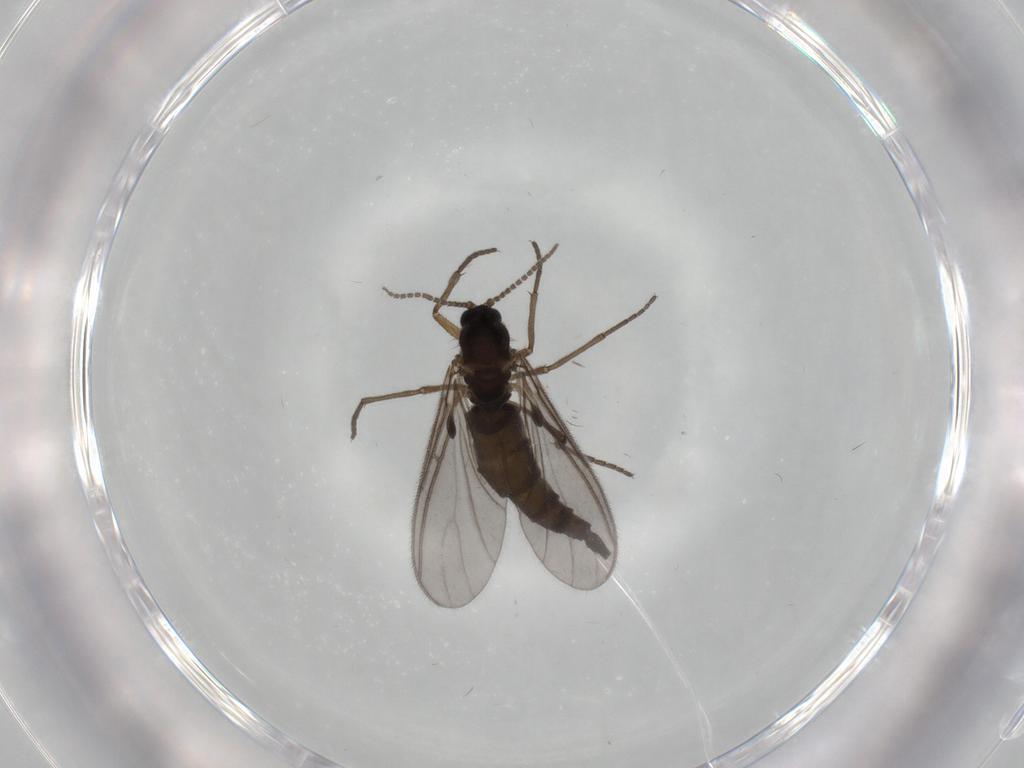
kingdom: Animalia
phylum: Arthropoda
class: Insecta
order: Diptera
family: Sciaridae
